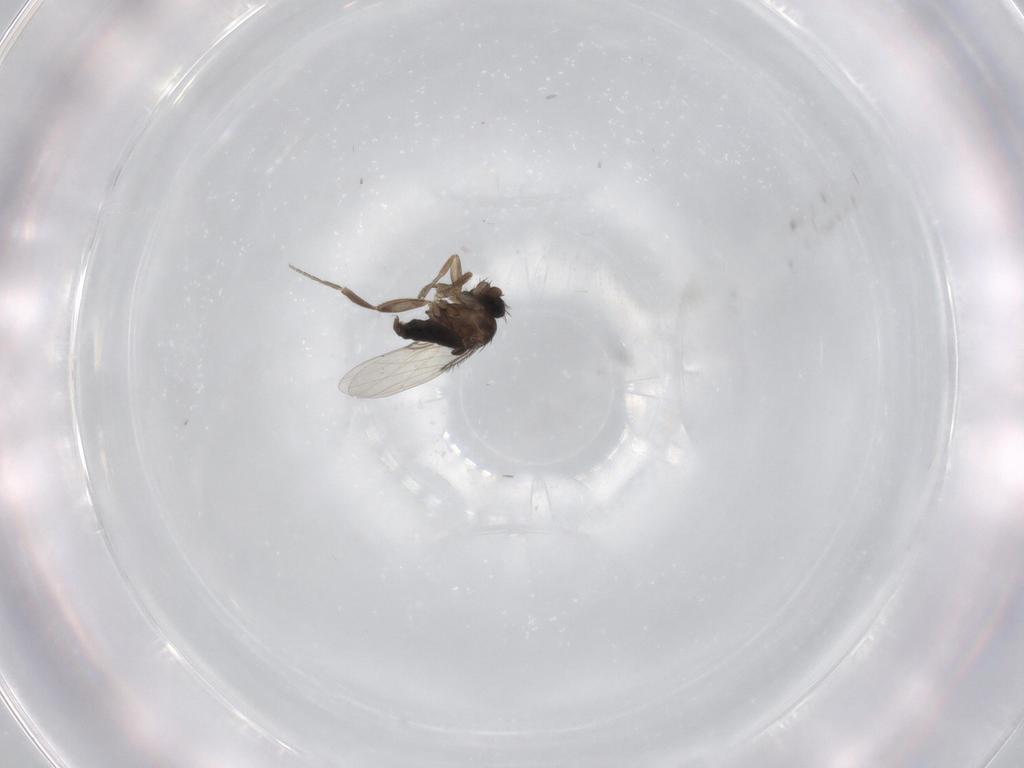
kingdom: Animalia
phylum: Arthropoda
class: Insecta
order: Diptera
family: Phoridae
